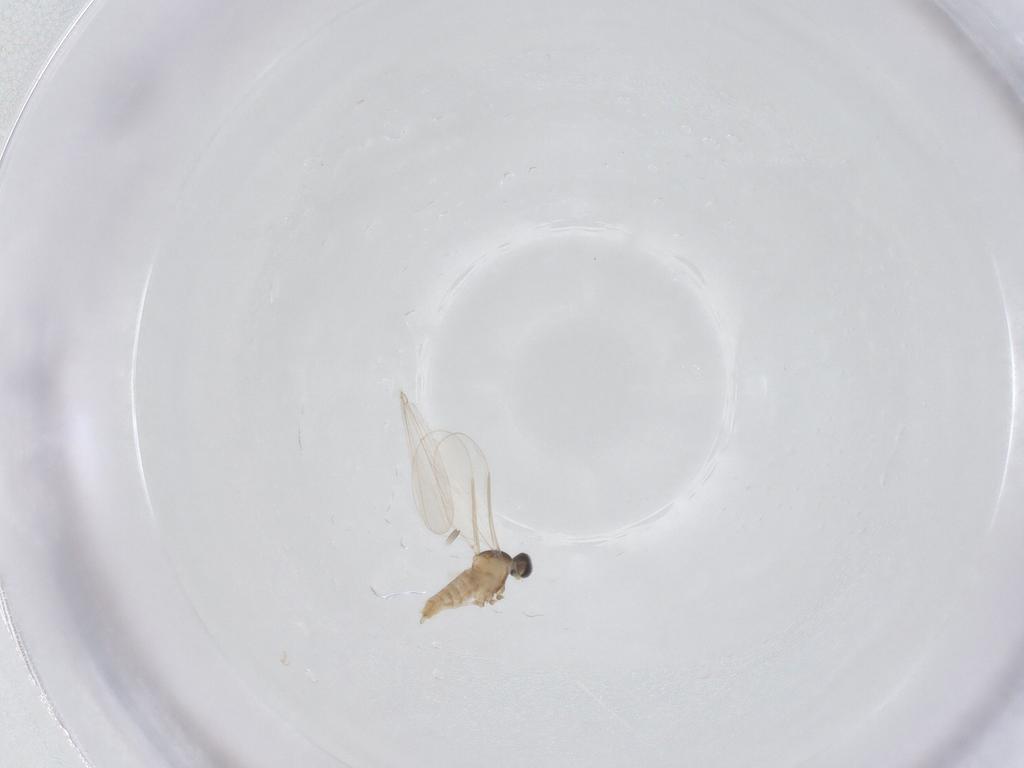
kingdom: Animalia
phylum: Arthropoda
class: Insecta
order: Diptera
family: Cecidomyiidae
